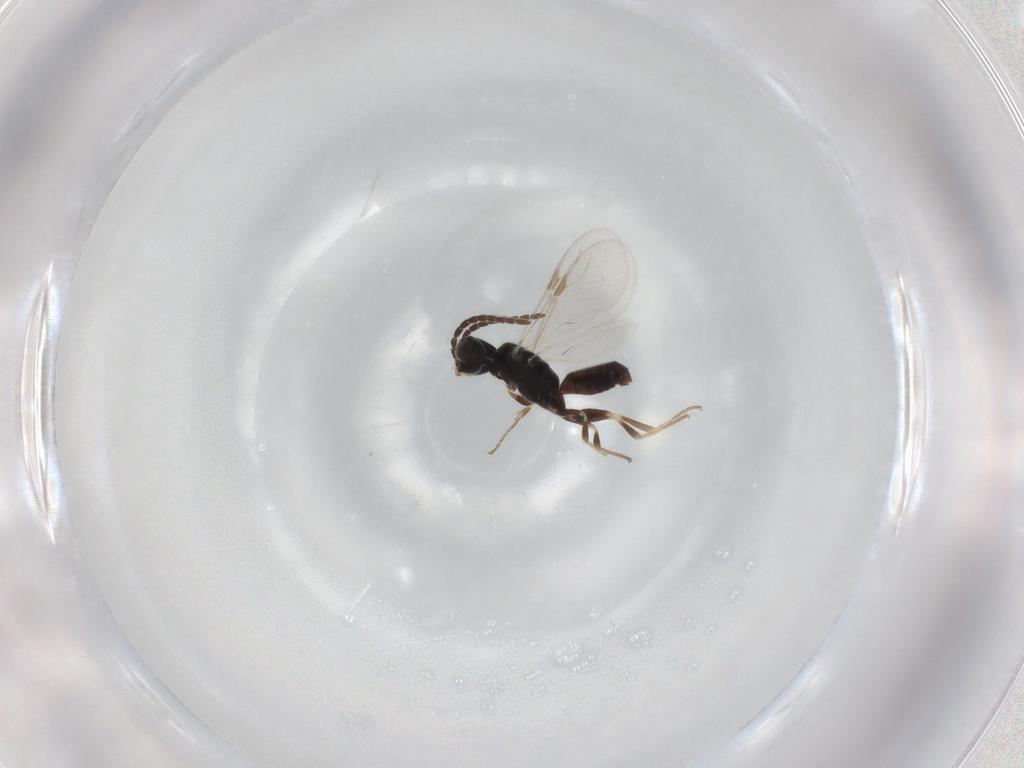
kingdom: Animalia
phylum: Arthropoda
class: Insecta
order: Hymenoptera
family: Dryinidae
